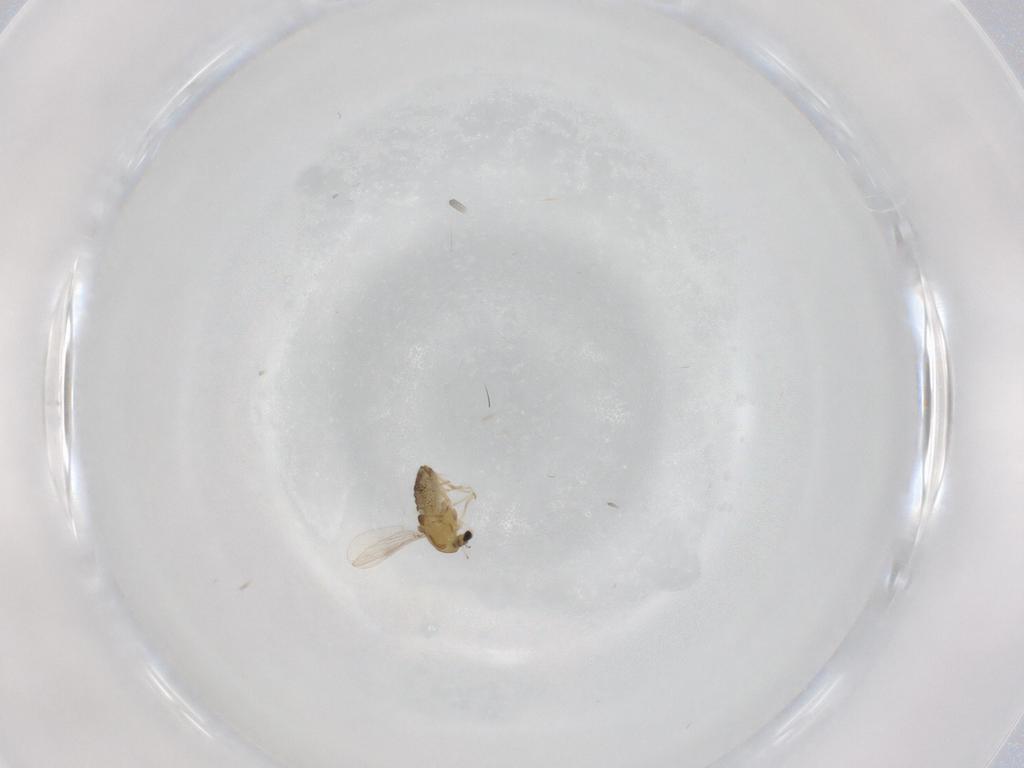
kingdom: Animalia
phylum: Arthropoda
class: Insecta
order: Diptera
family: Chironomidae
